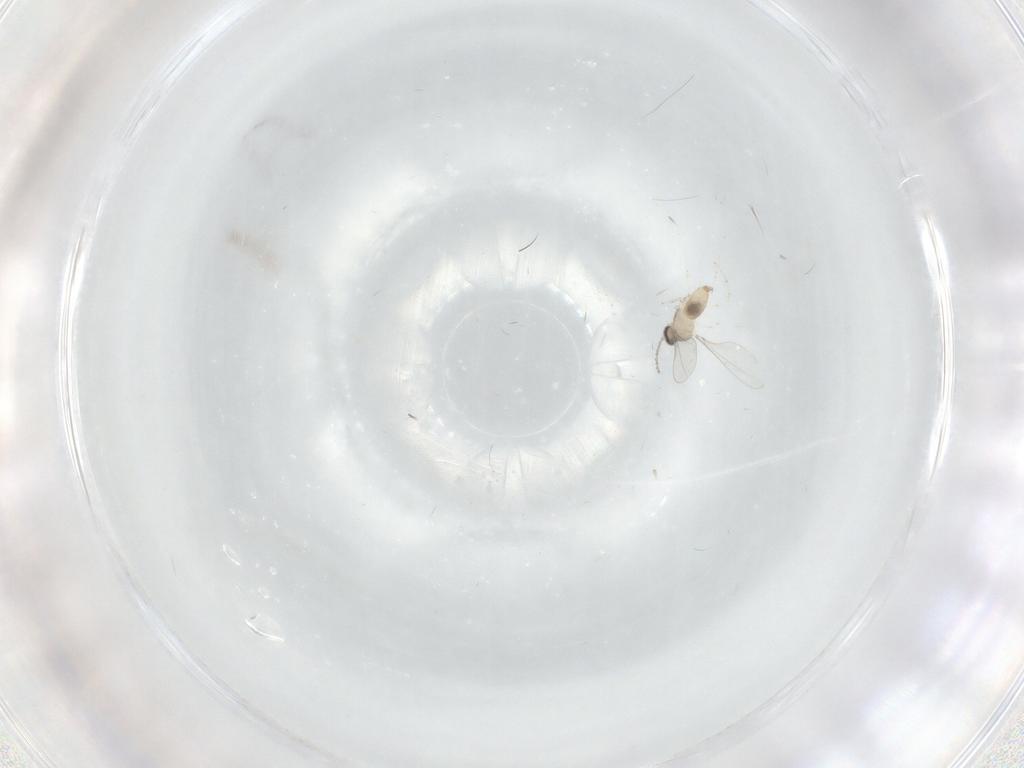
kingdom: Animalia
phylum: Arthropoda
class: Insecta
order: Diptera
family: Cecidomyiidae
